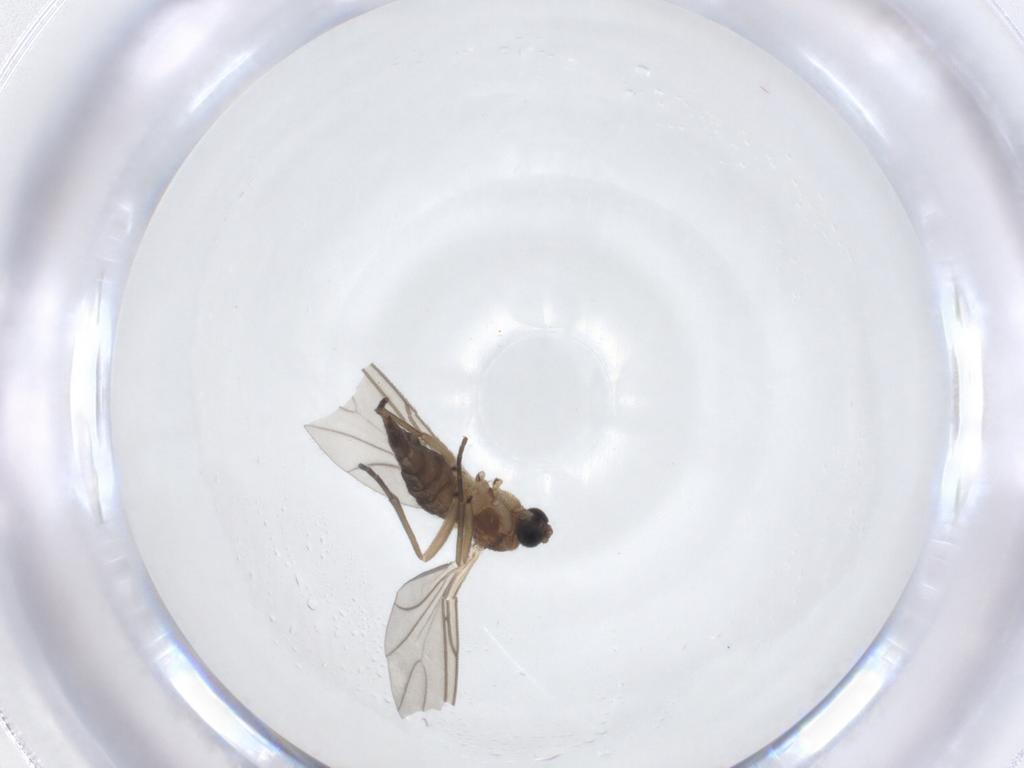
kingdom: Animalia
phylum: Arthropoda
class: Insecta
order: Diptera
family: Sciaridae
